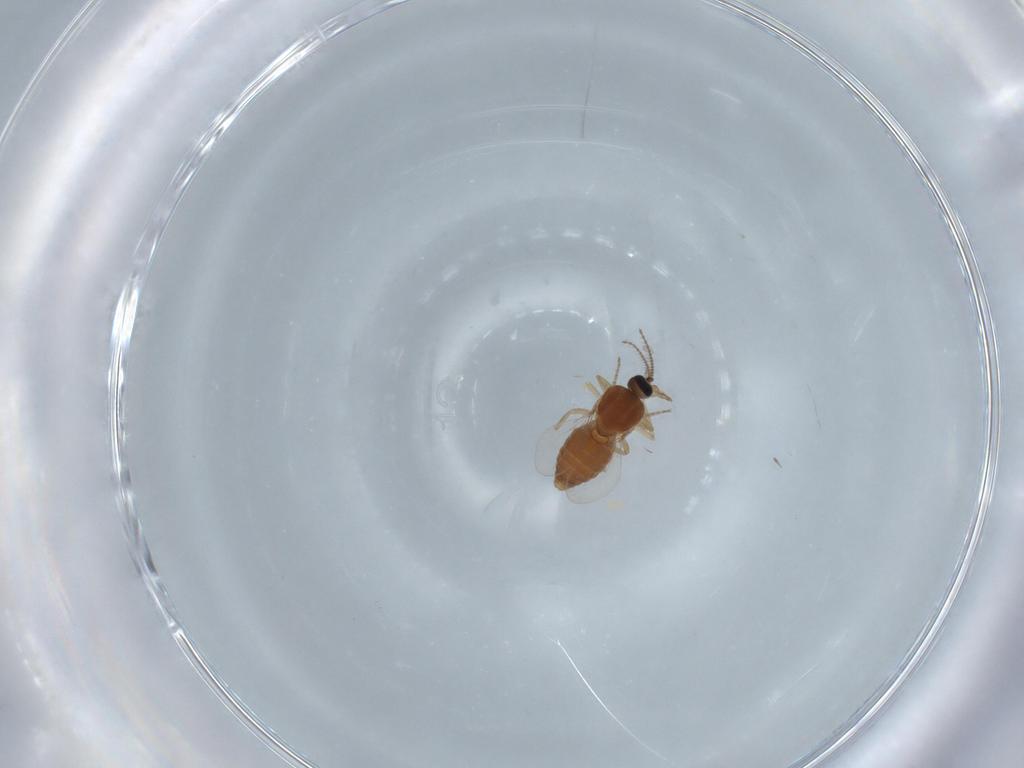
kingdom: Animalia
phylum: Arthropoda
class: Insecta
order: Diptera
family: Ceratopogonidae
